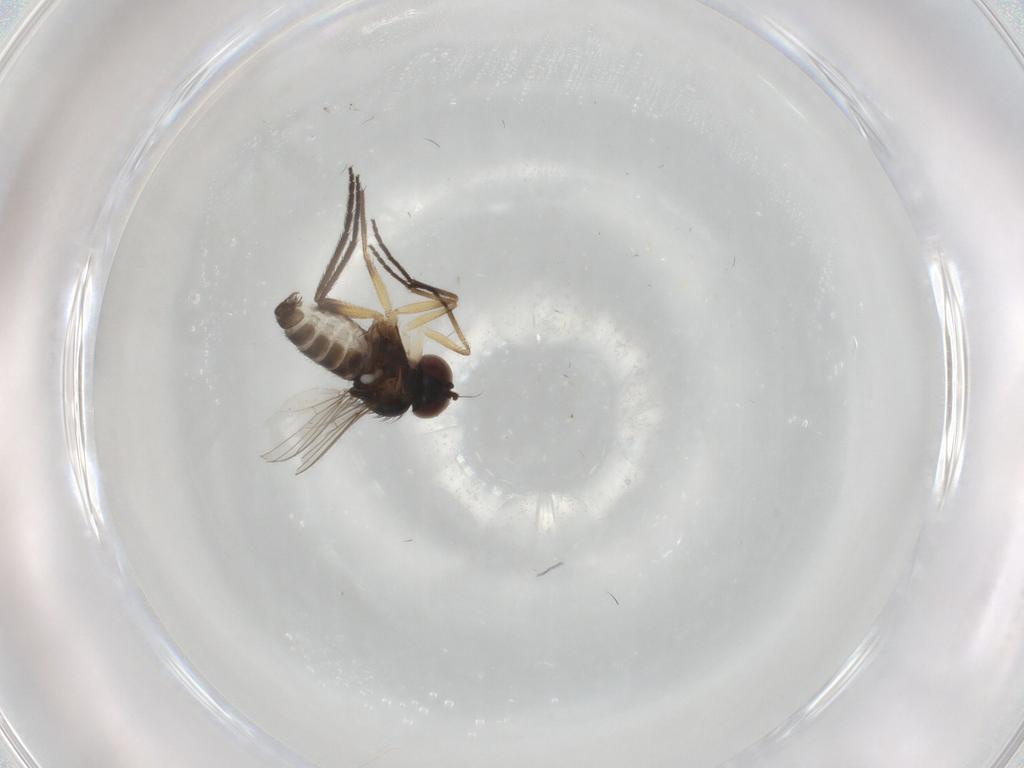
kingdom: Animalia
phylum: Arthropoda
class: Insecta
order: Diptera
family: Dolichopodidae
